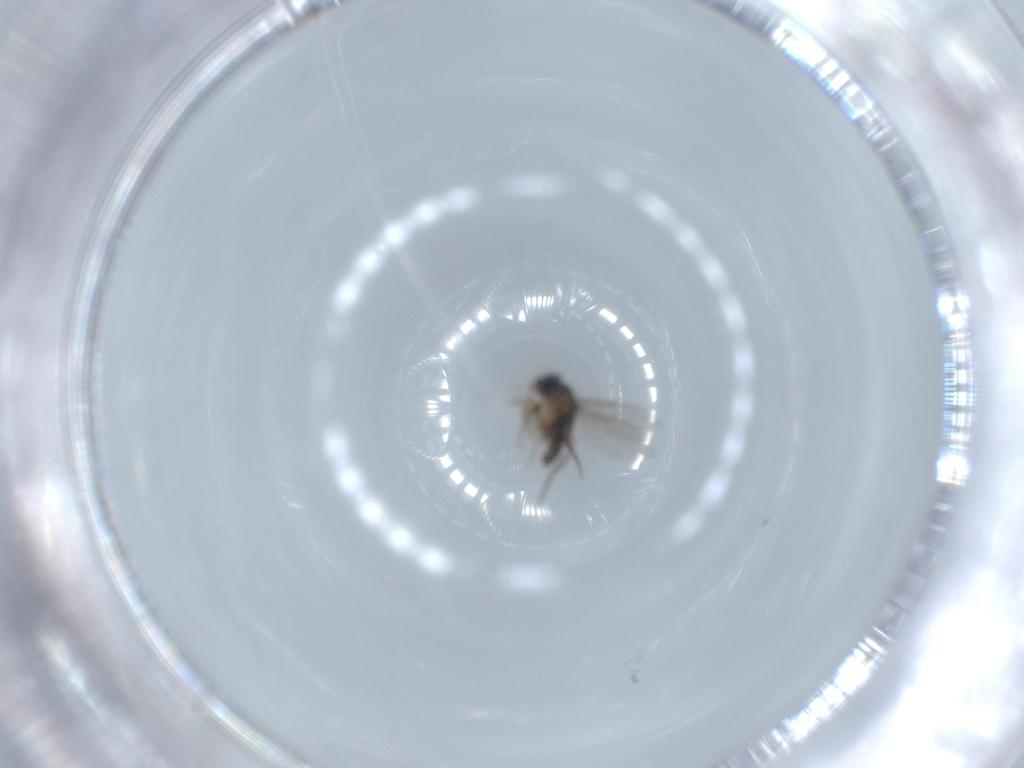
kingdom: Animalia
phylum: Arthropoda
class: Insecta
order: Diptera
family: Phoridae
